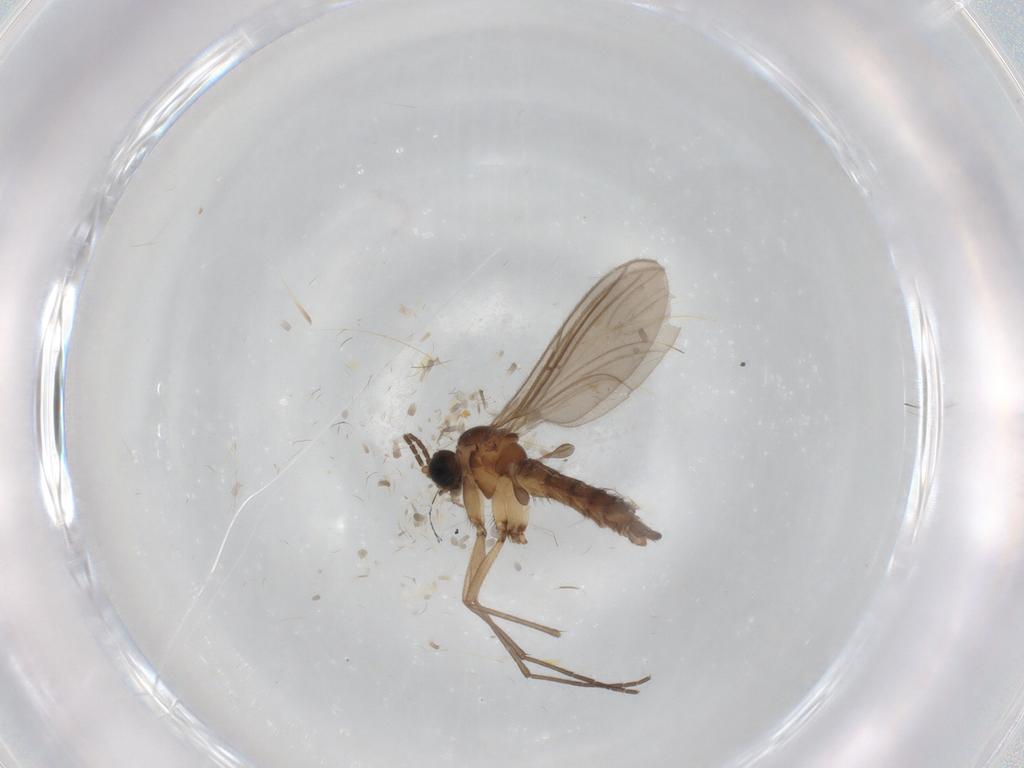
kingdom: Animalia
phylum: Arthropoda
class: Insecta
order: Diptera
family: Sciaridae
